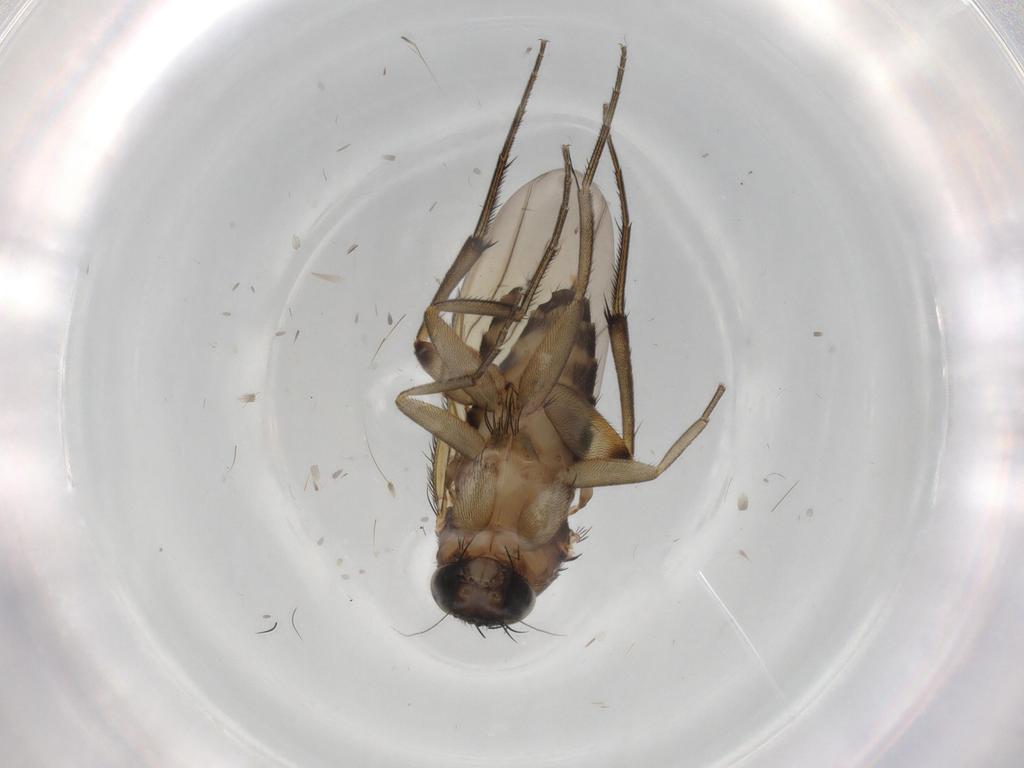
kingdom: Animalia
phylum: Arthropoda
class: Insecta
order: Diptera
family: Phoridae
